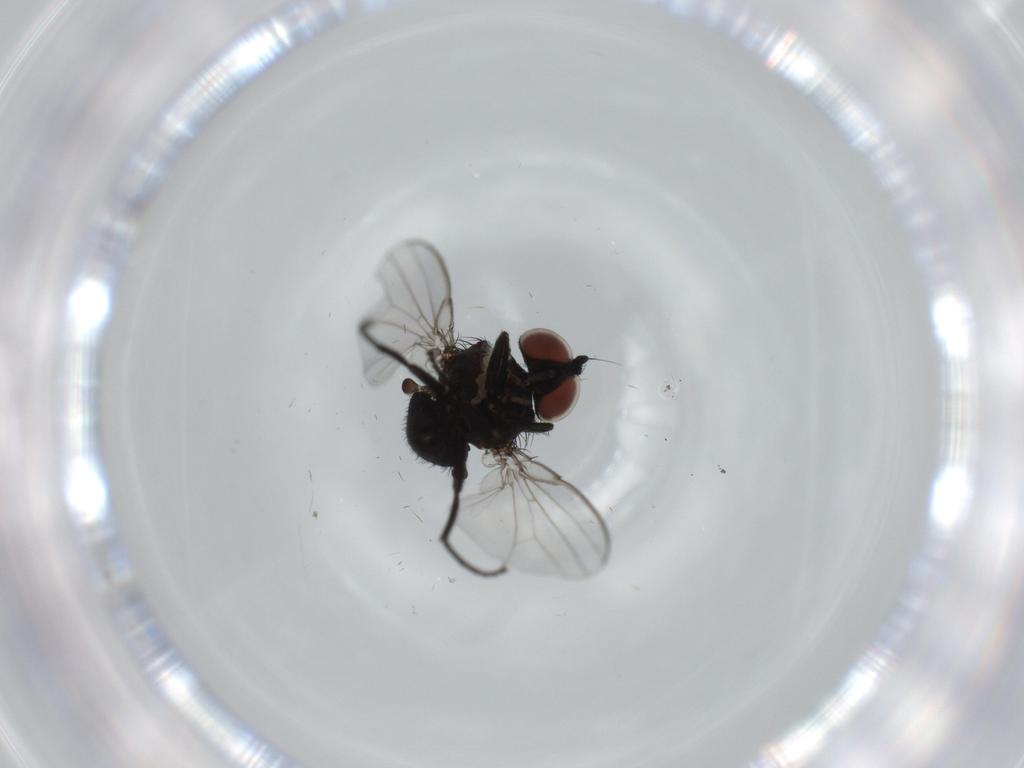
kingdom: Animalia
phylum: Arthropoda
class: Insecta
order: Diptera
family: Milichiidae
